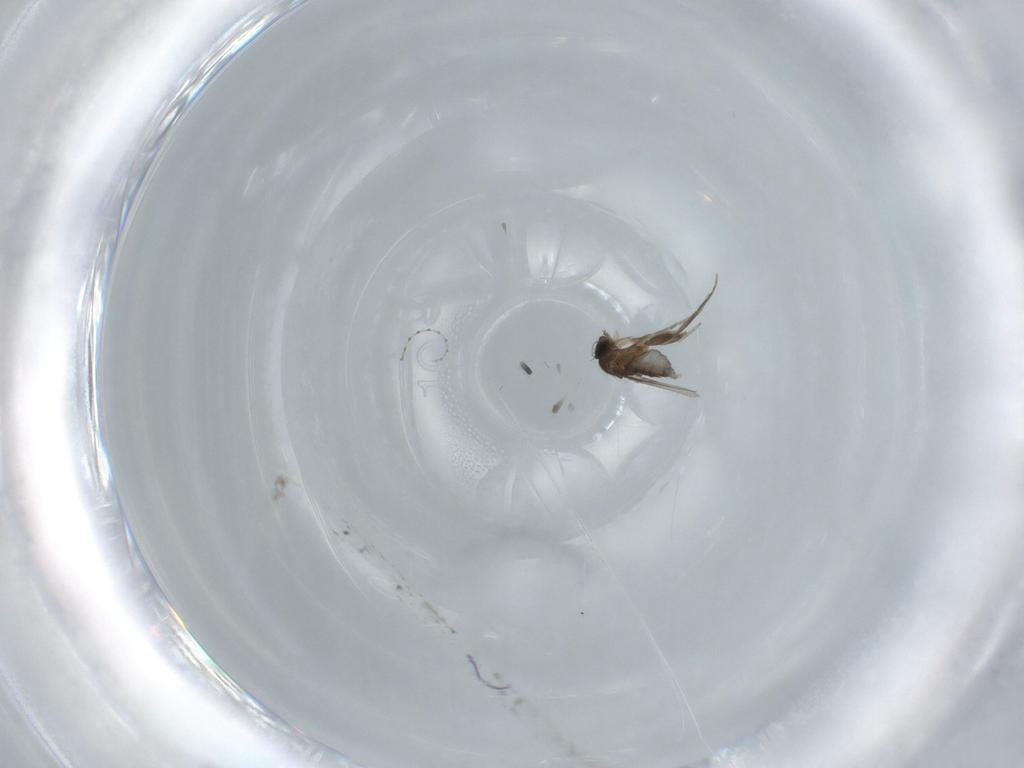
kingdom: Animalia
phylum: Arthropoda
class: Insecta
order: Diptera
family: Phoridae
